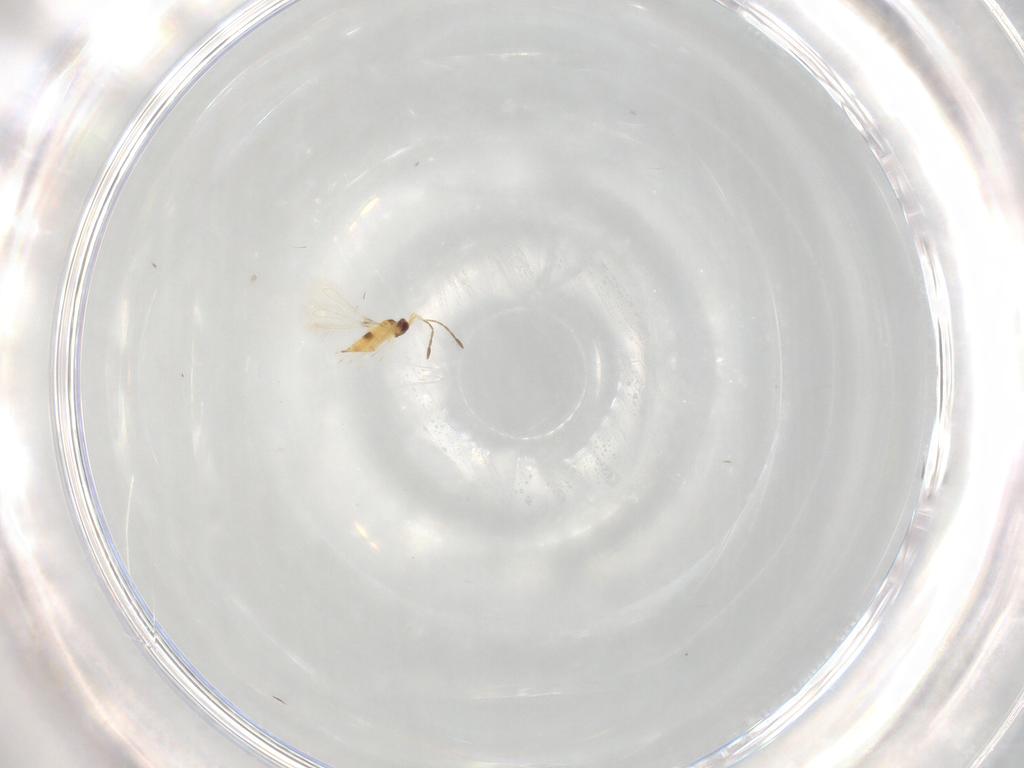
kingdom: Animalia
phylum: Arthropoda
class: Insecta
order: Hymenoptera
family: Mymaridae
